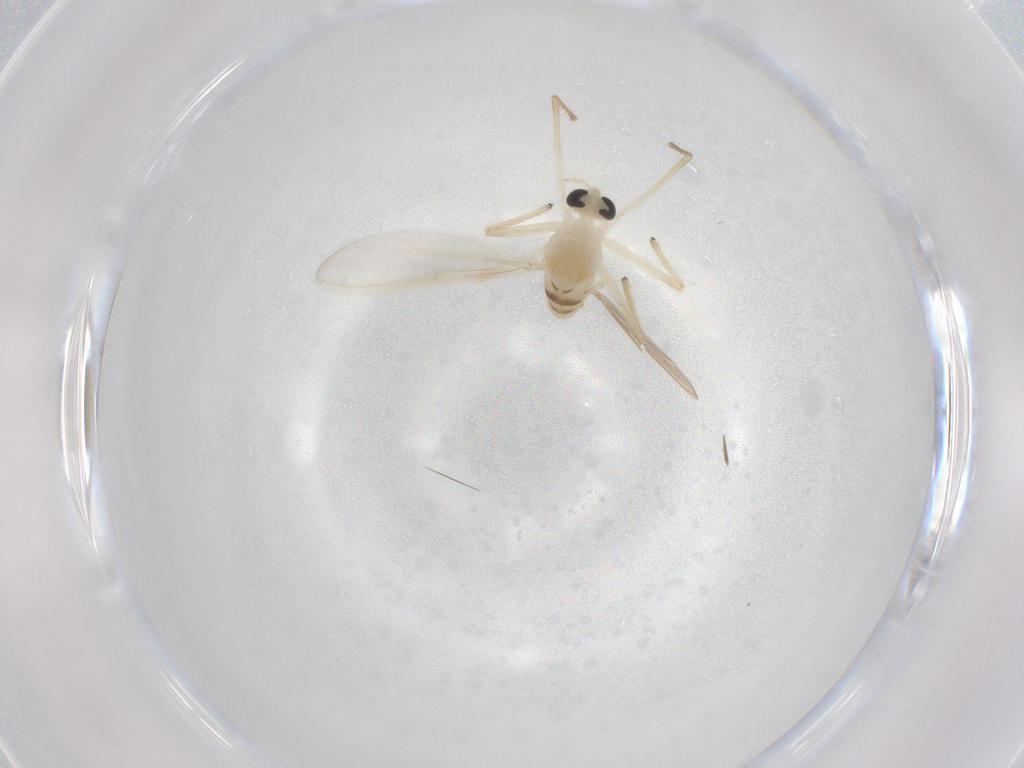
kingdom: Animalia
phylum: Arthropoda
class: Insecta
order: Diptera
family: Chironomidae
